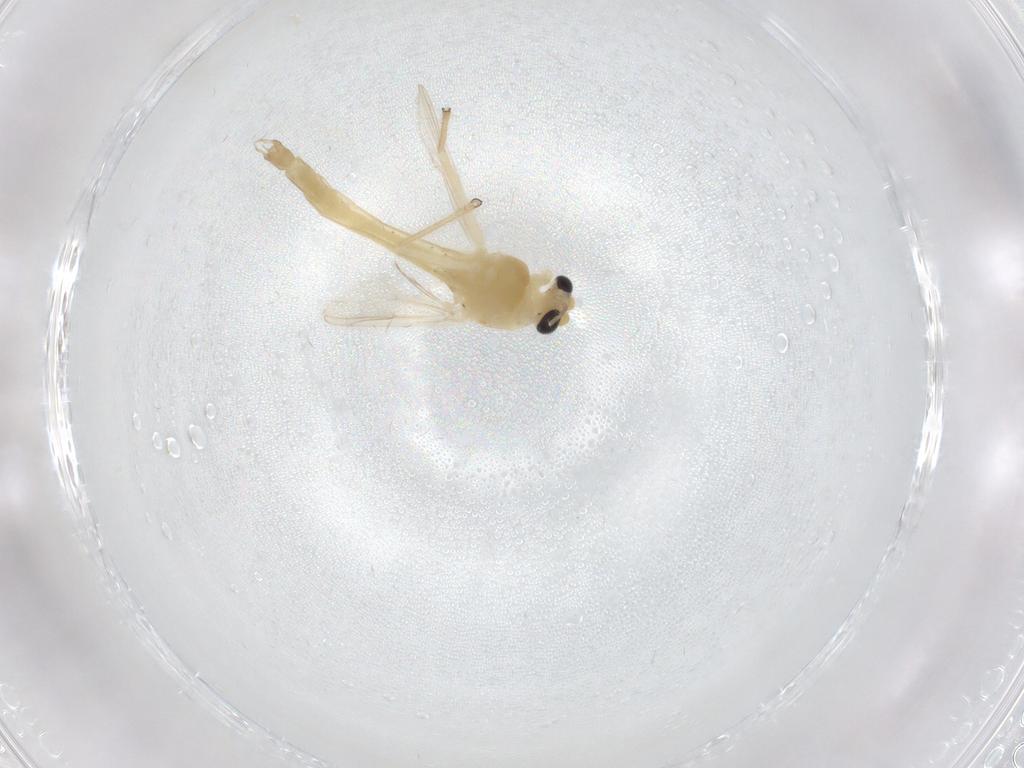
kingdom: Animalia
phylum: Arthropoda
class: Insecta
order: Diptera
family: Chironomidae
